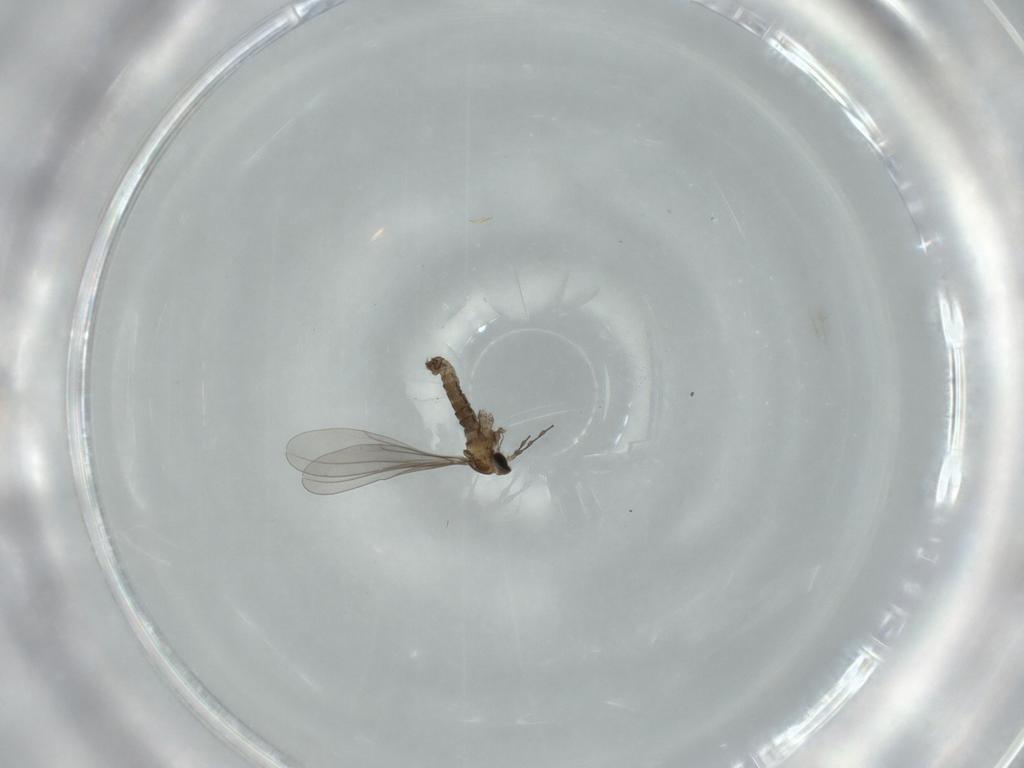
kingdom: Animalia
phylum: Arthropoda
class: Insecta
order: Diptera
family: Cecidomyiidae
